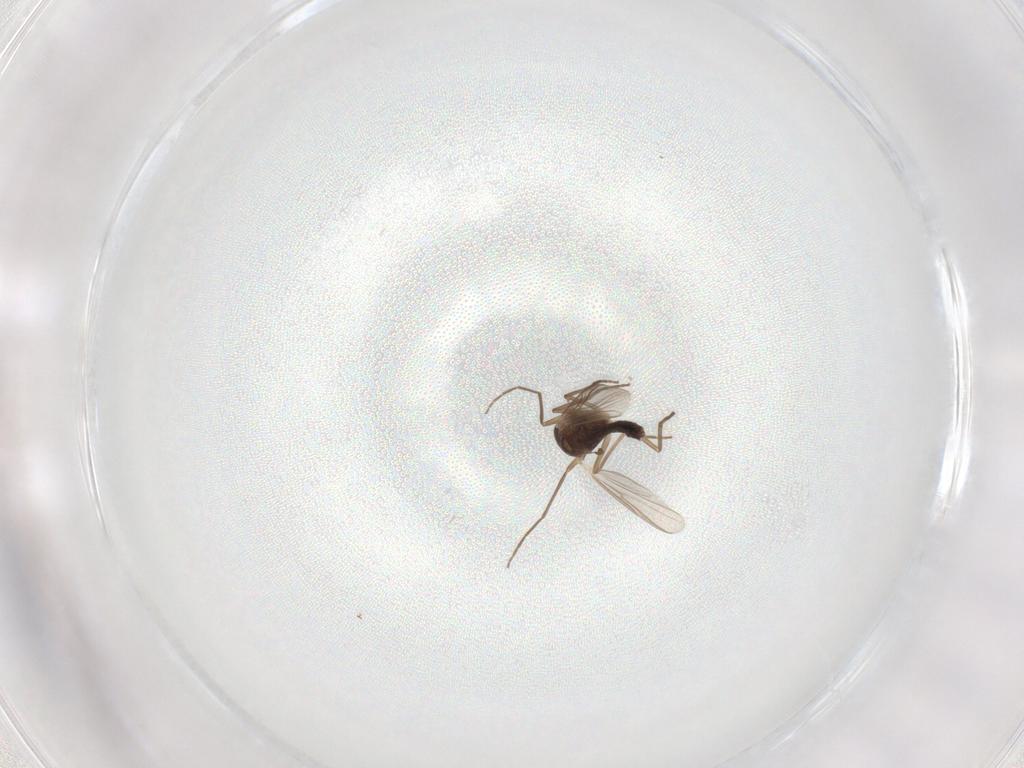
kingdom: Animalia
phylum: Arthropoda
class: Insecta
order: Diptera
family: Chironomidae
